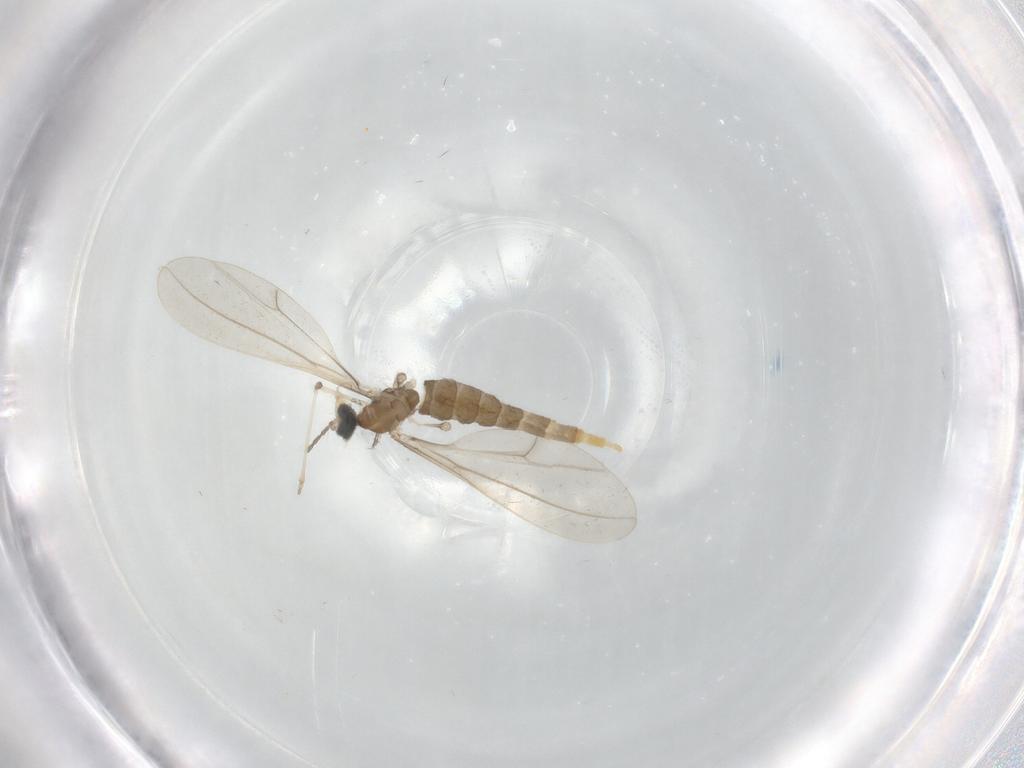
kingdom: Animalia
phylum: Arthropoda
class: Insecta
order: Diptera
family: Cecidomyiidae
